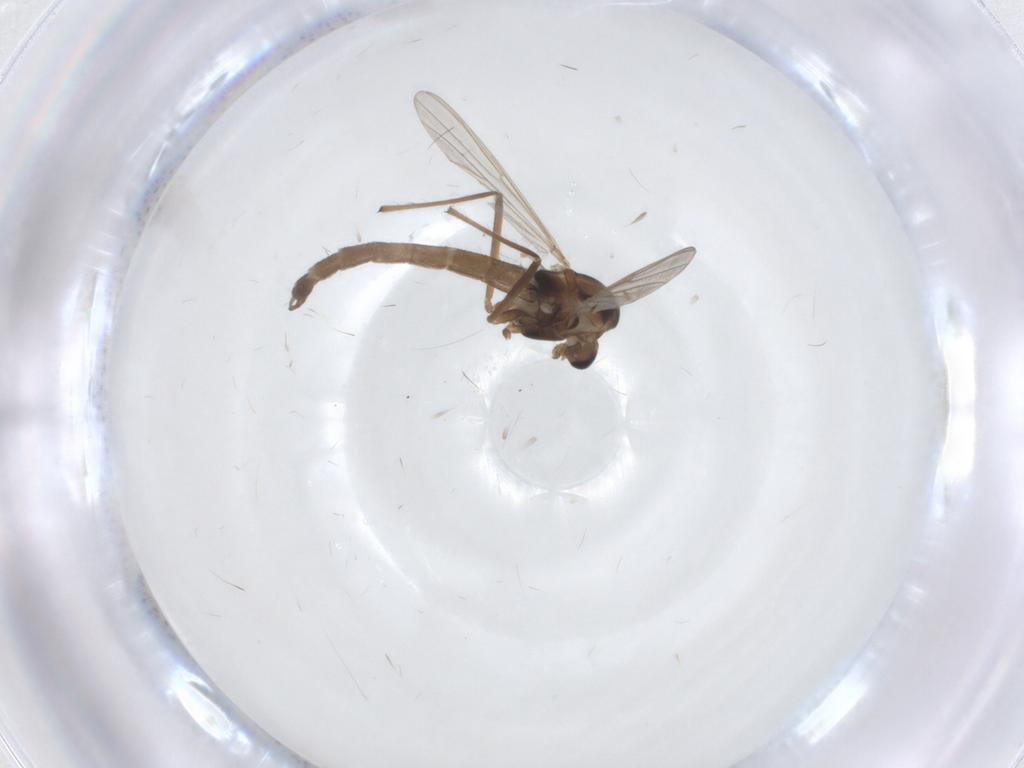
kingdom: Animalia
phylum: Arthropoda
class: Insecta
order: Diptera
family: Chironomidae
